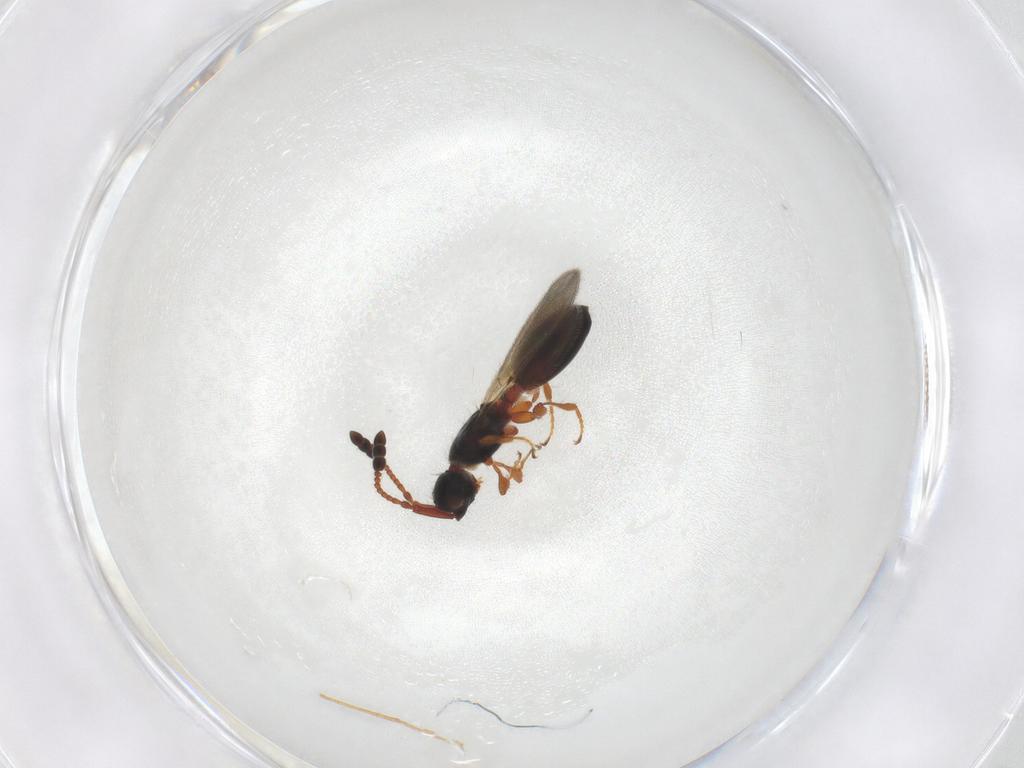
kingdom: Animalia
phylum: Arthropoda
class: Insecta
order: Hymenoptera
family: Diapriidae
